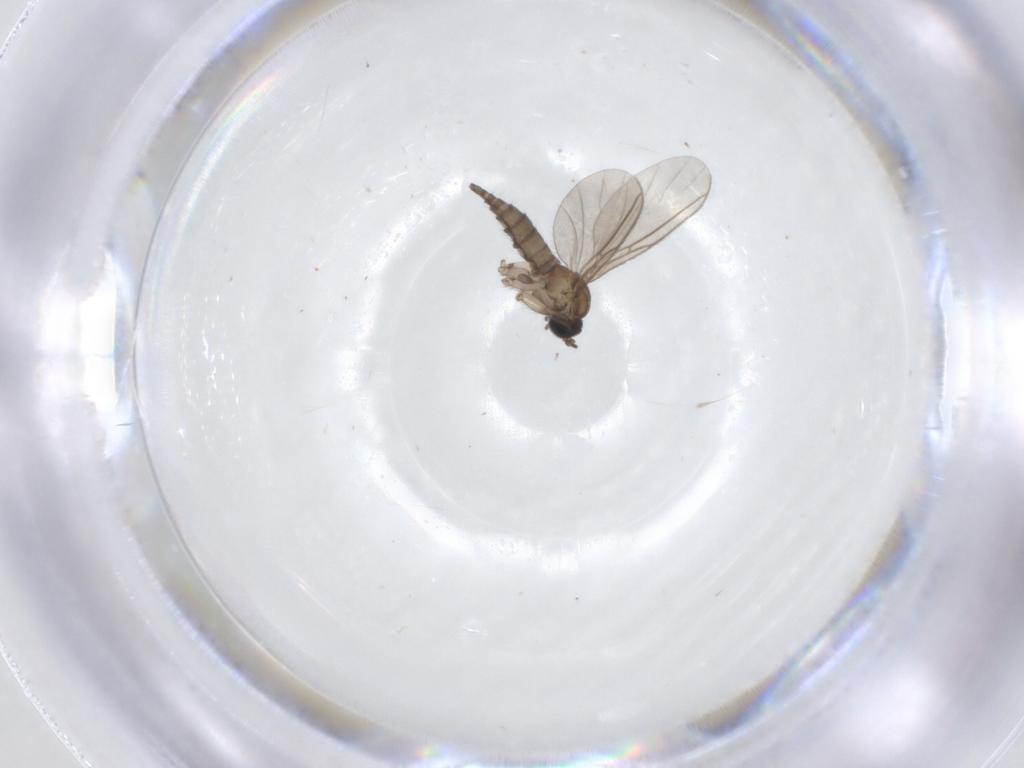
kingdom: Animalia
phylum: Arthropoda
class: Insecta
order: Diptera
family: Sciaridae
